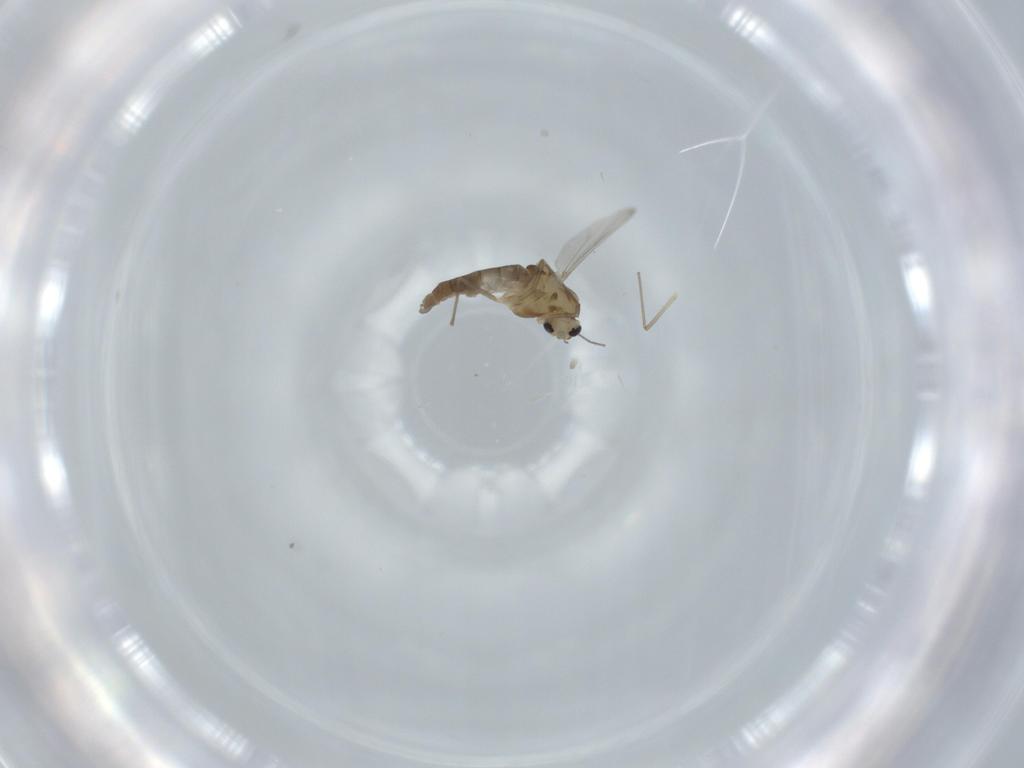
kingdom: Animalia
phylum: Arthropoda
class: Insecta
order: Diptera
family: Chironomidae
